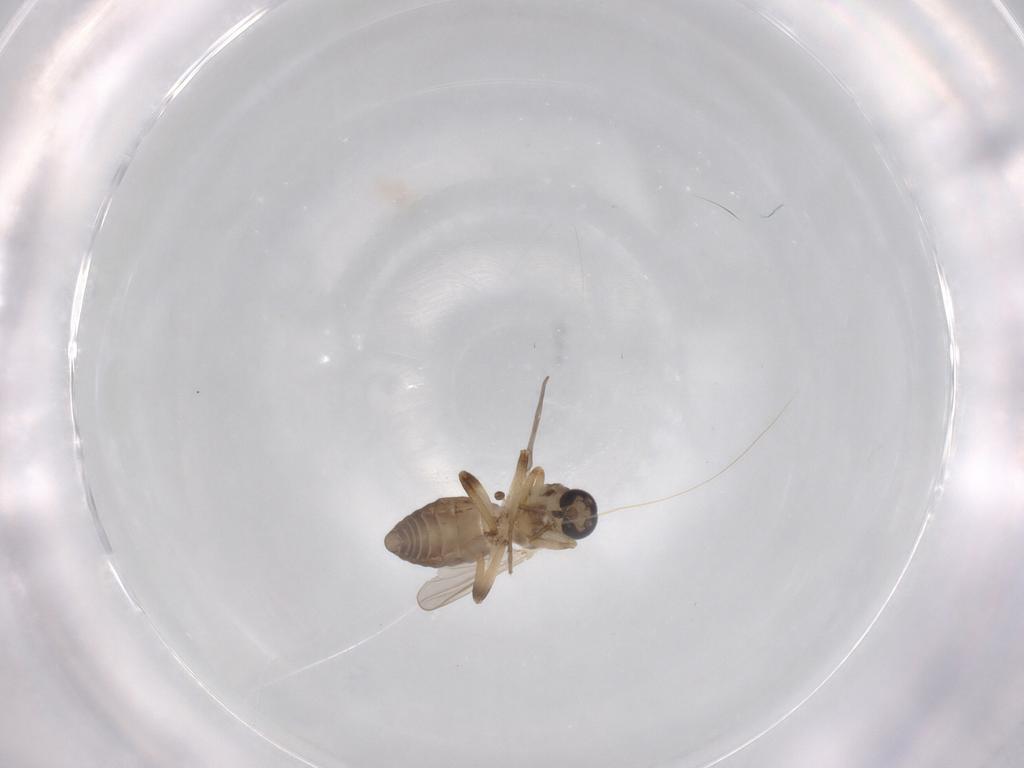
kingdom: Animalia
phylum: Arthropoda
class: Insecta
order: Diptera
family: Ceratopogonidae
